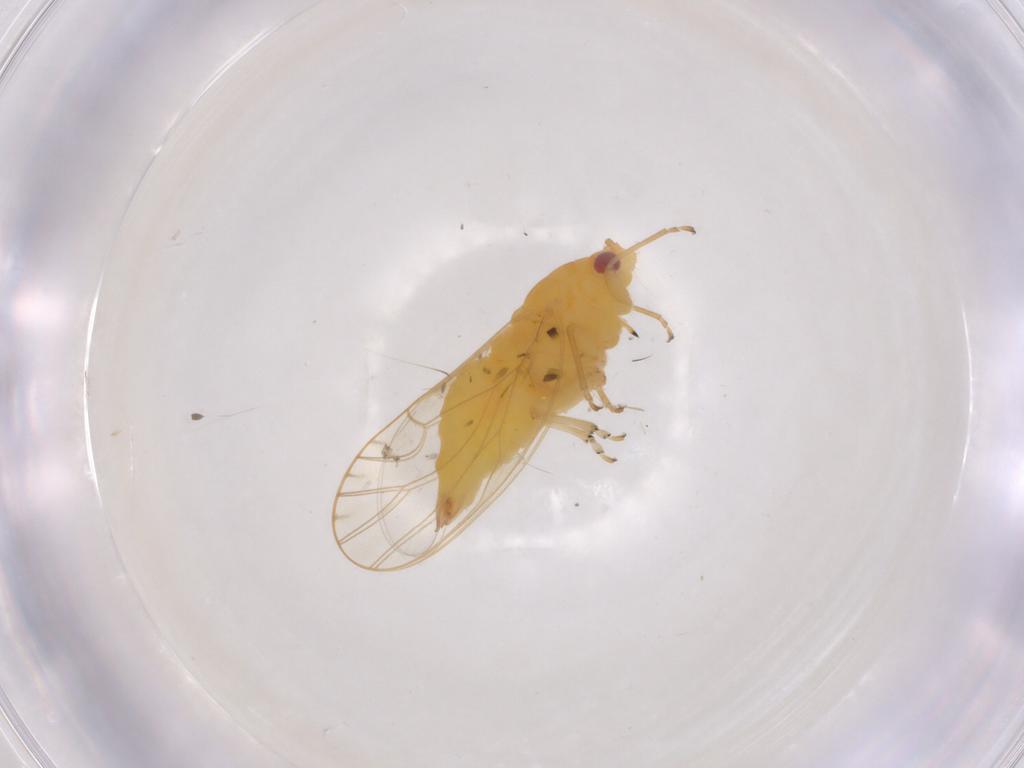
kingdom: Animalia
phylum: Arthropoda
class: Insecta
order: Hemiptera
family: Psyllidae
